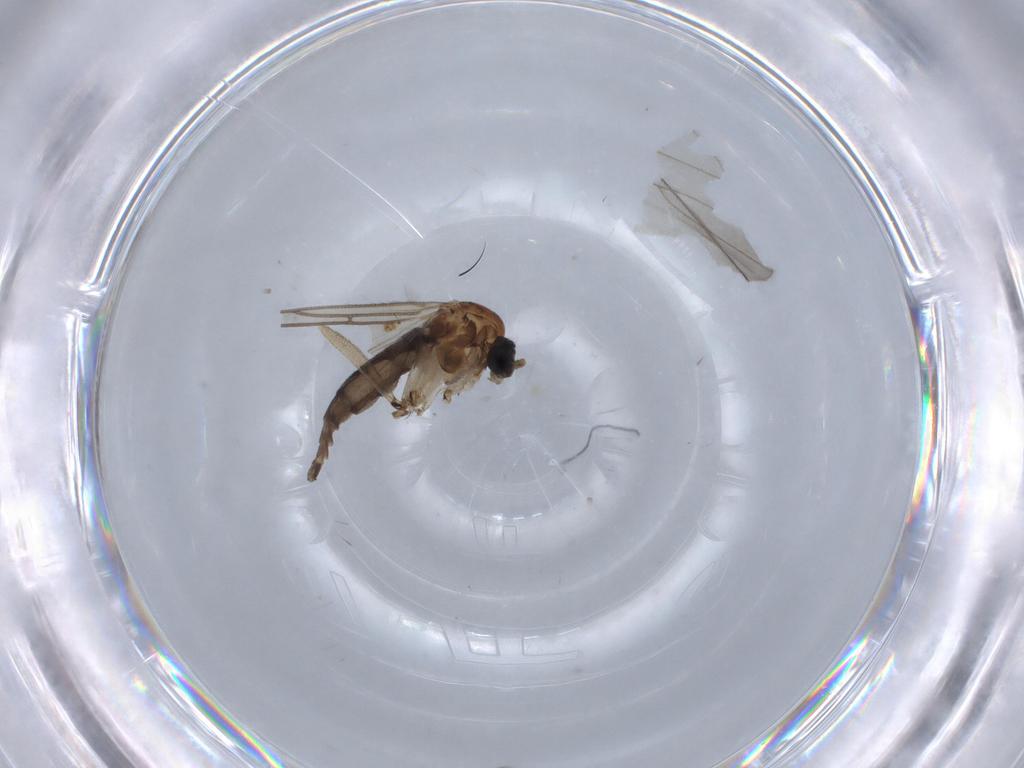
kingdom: Animalia
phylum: Arthropoda
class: Insecta
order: Diptera
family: Mycetophilidae
